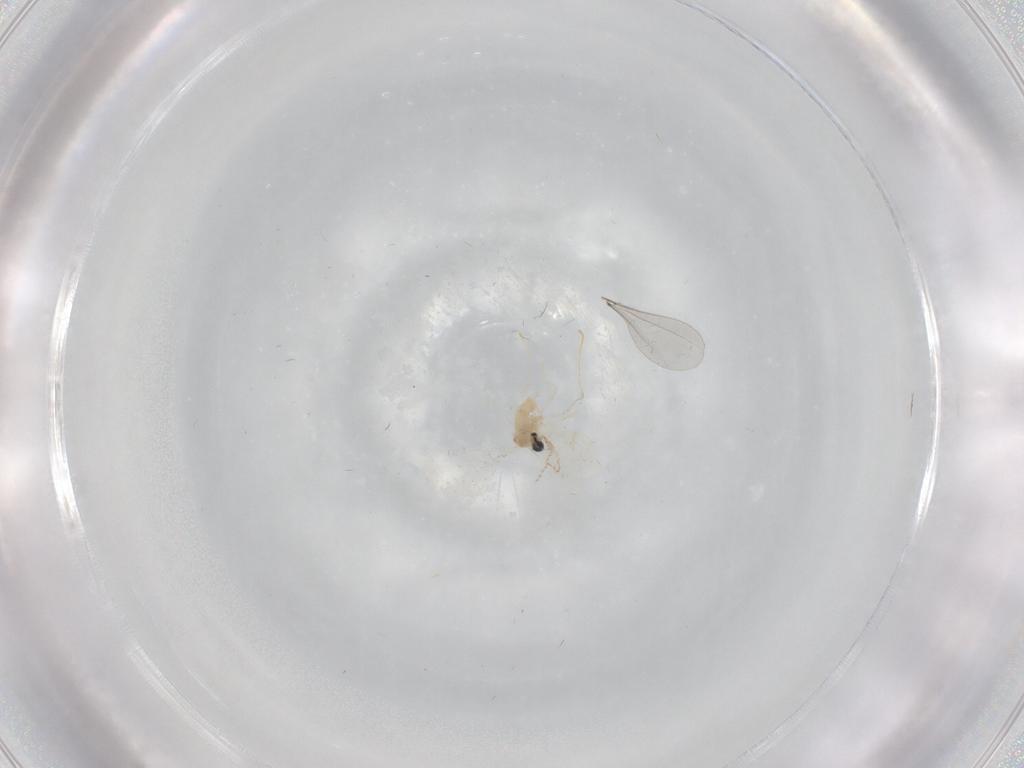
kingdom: Animalia
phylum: Arthropoda
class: Insecta
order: Diptera
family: Cecidomyiidae
